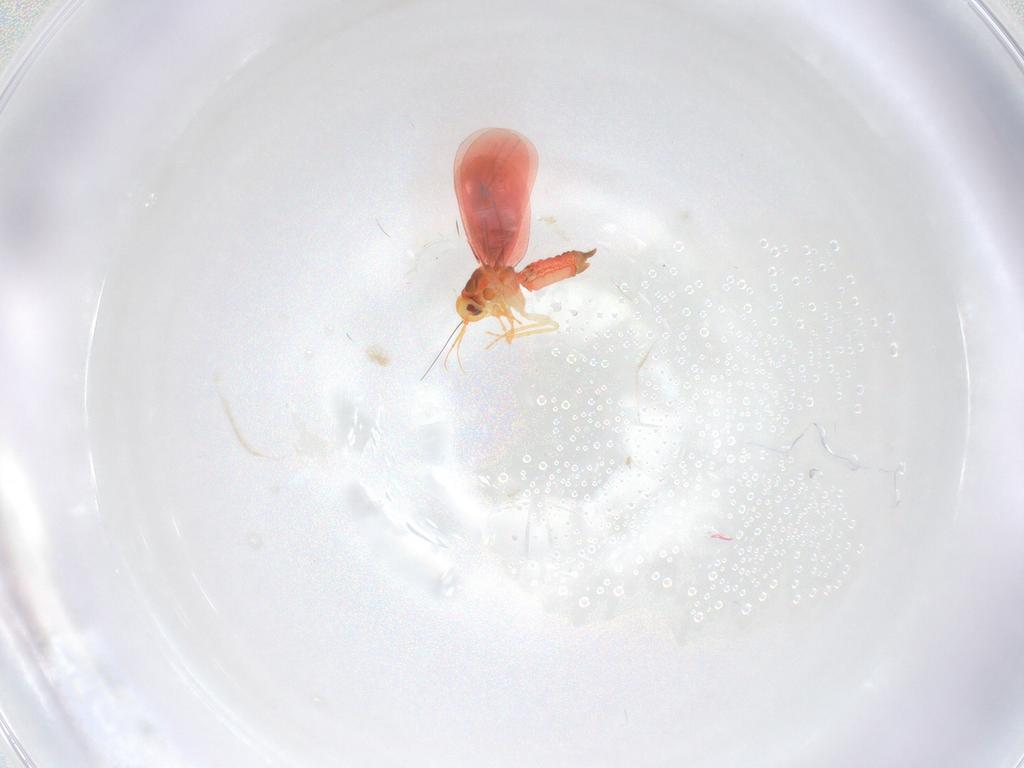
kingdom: Animalia
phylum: Arthropoda
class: Insecta
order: Hemiptera
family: Aleyrodidae
